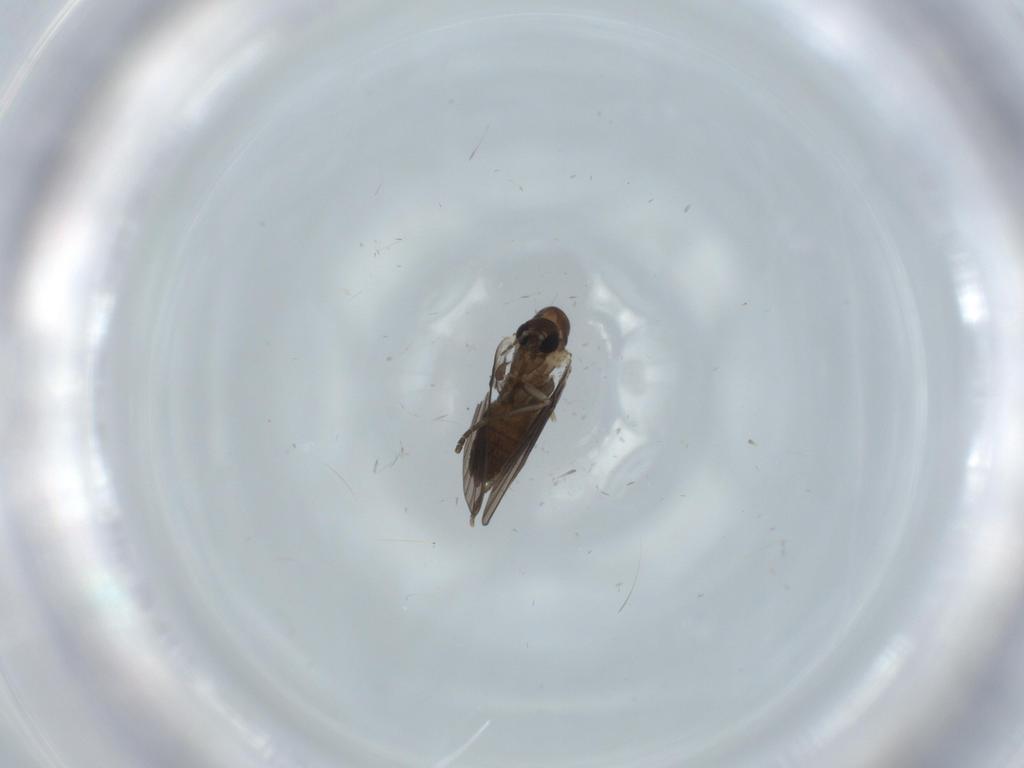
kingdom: Animalia
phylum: Arthropoda
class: Insecta
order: Diptera
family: Psychodidae
